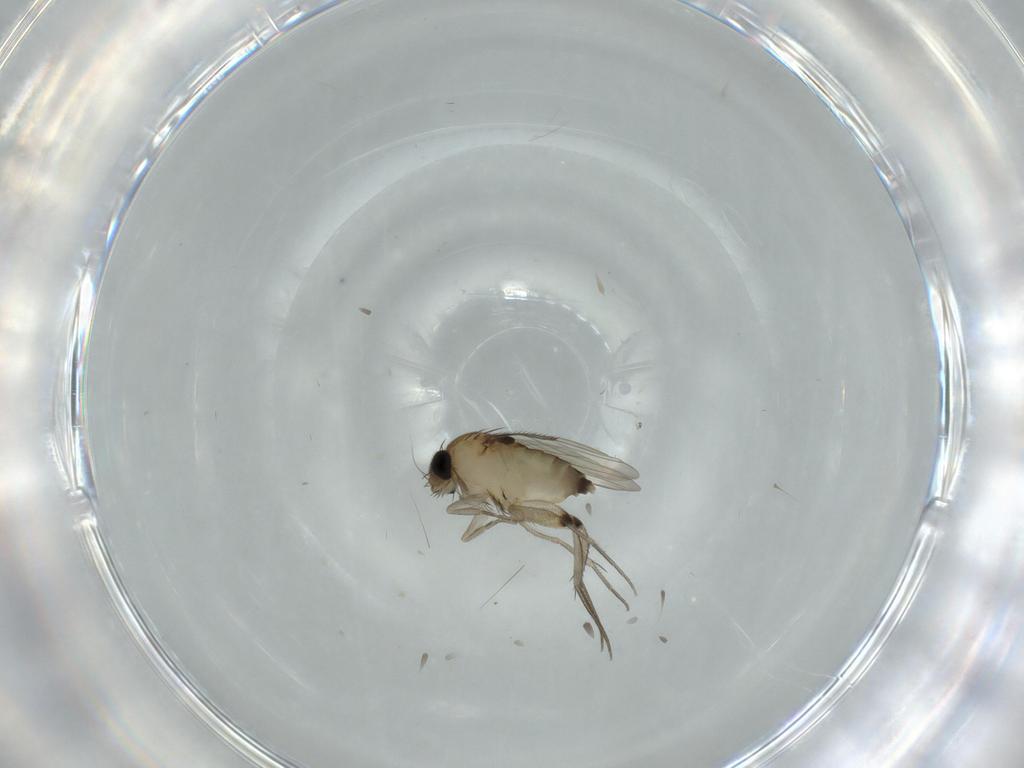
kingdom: Animalia
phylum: Arthropoda
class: Insecta
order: Diptera
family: Phoridae
